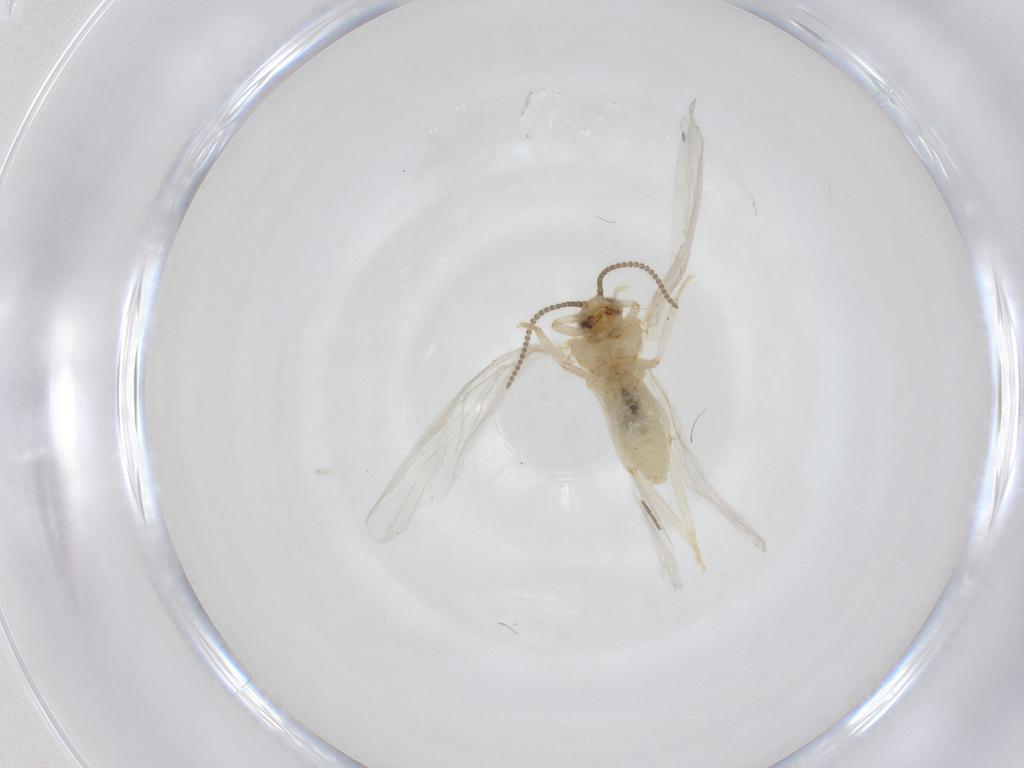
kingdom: Animalia
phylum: Arthropoda
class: Insecta
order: Neuroptera
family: Coniopterygidae
